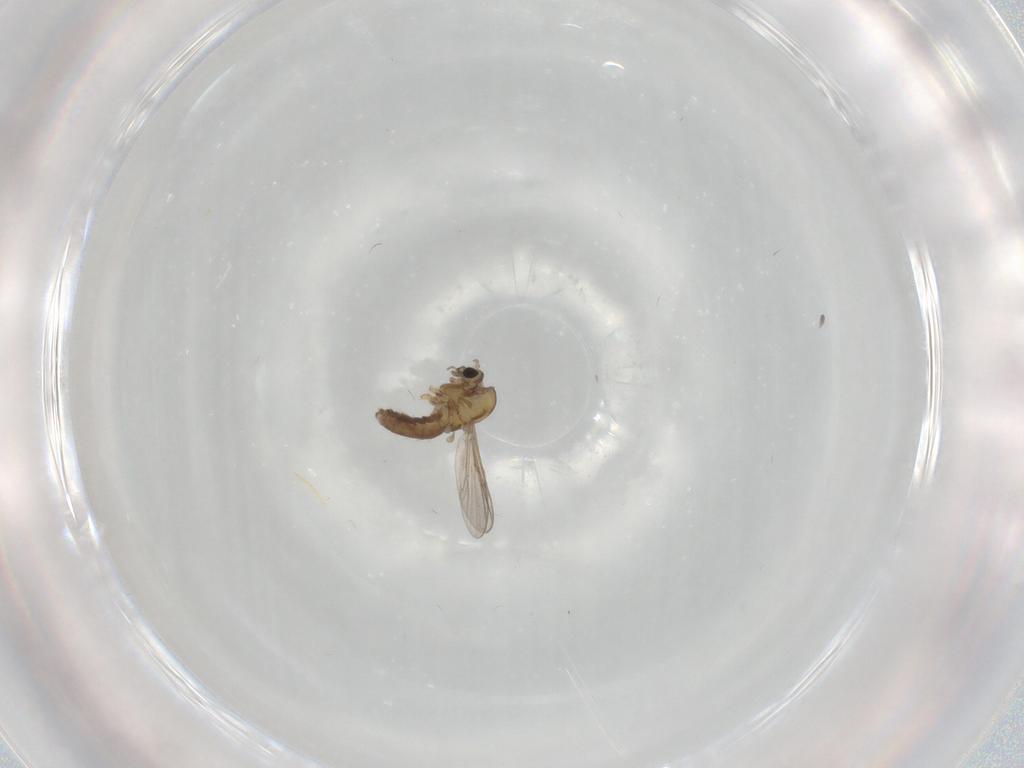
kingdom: Animalia
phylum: Arthropoda
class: Insecta
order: Diptera
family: Chironomidae
